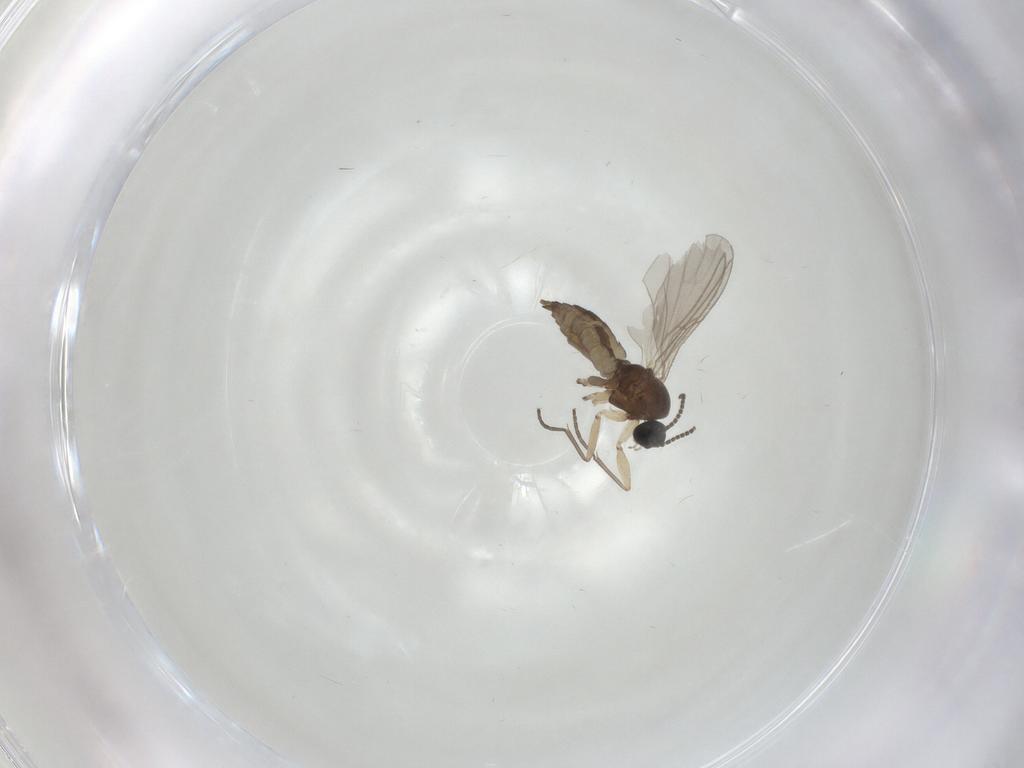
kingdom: Animalia
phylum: Arthropoda
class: Insecta
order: Diptera
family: Sciaridae
